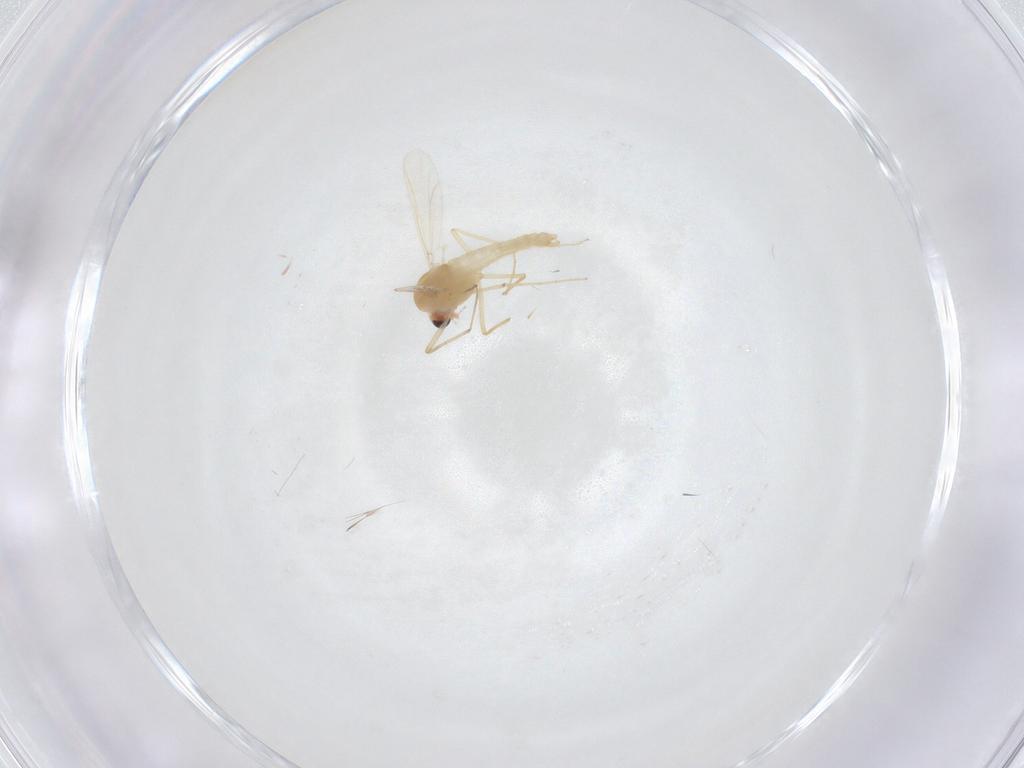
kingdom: Animalia
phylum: Arthropoda
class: Insecta
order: Diptera
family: Chironomidae
